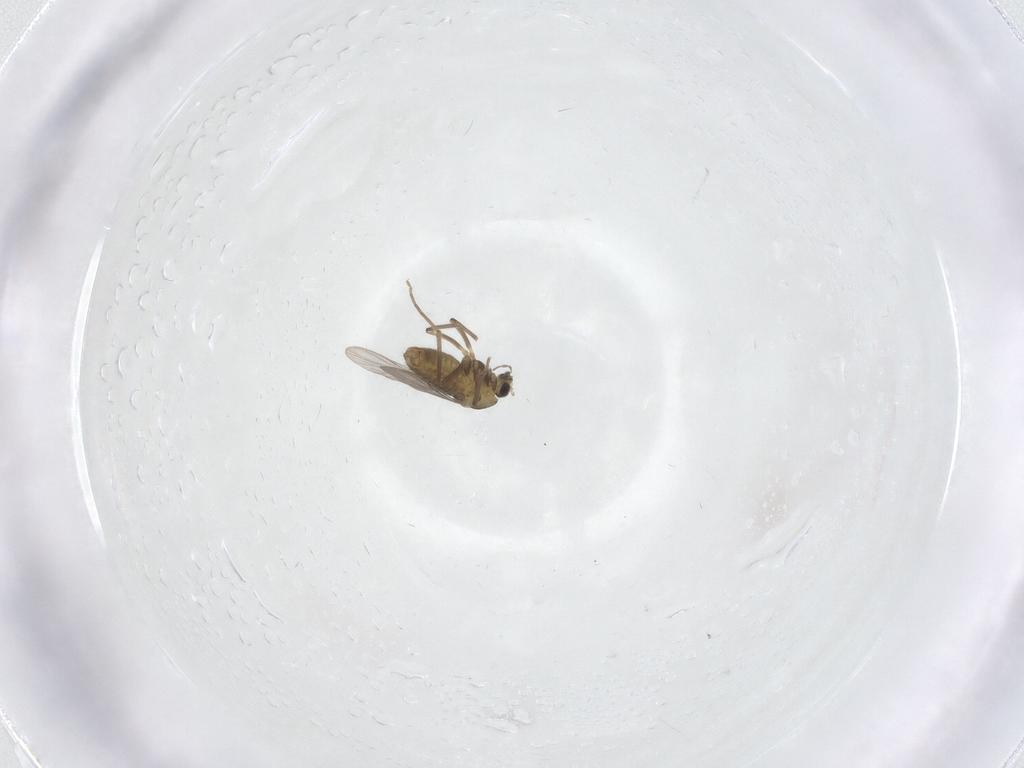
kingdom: Animalia
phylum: Arthropoda
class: Insecta
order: Diptera
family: Chironomidae
